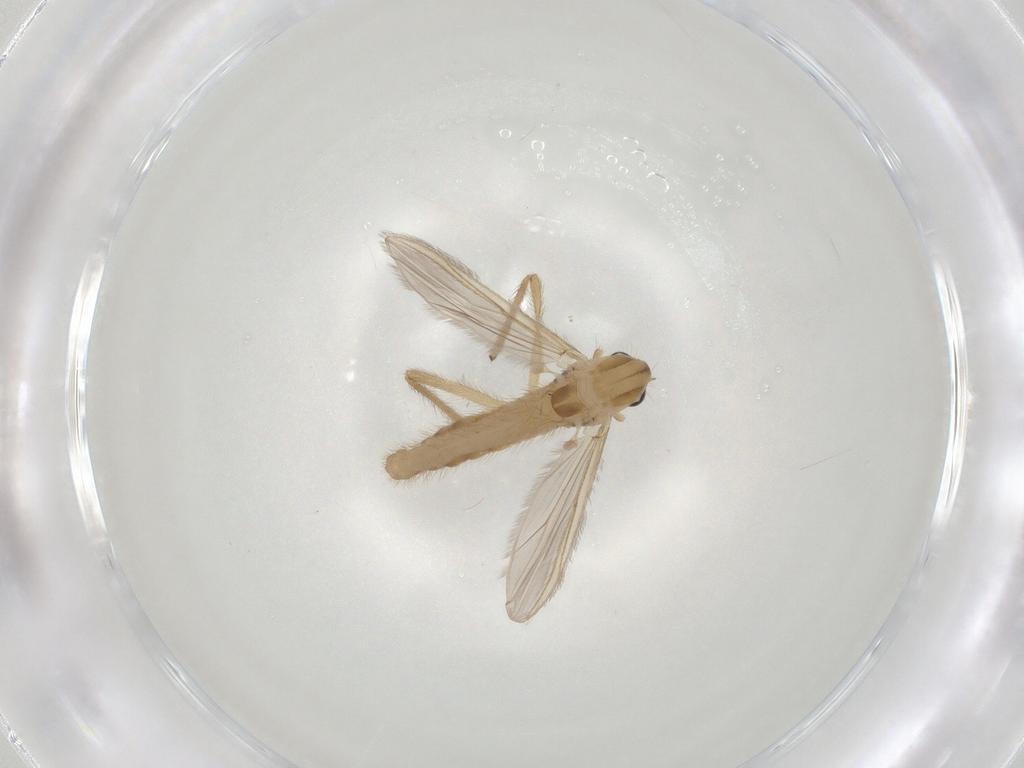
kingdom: Animalia
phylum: Arthropoda
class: Insecta
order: Diptera
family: Chironomidae
